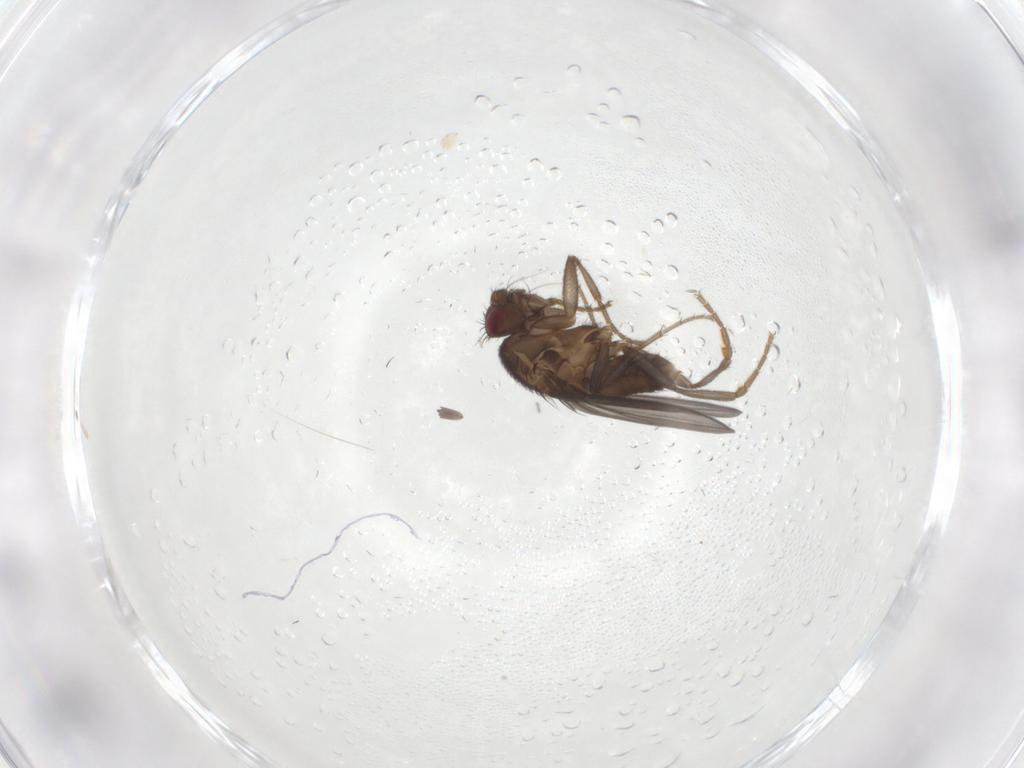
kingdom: Animalia
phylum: Arthropoda
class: Insecta
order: Diptera
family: Sphaeroceridae
